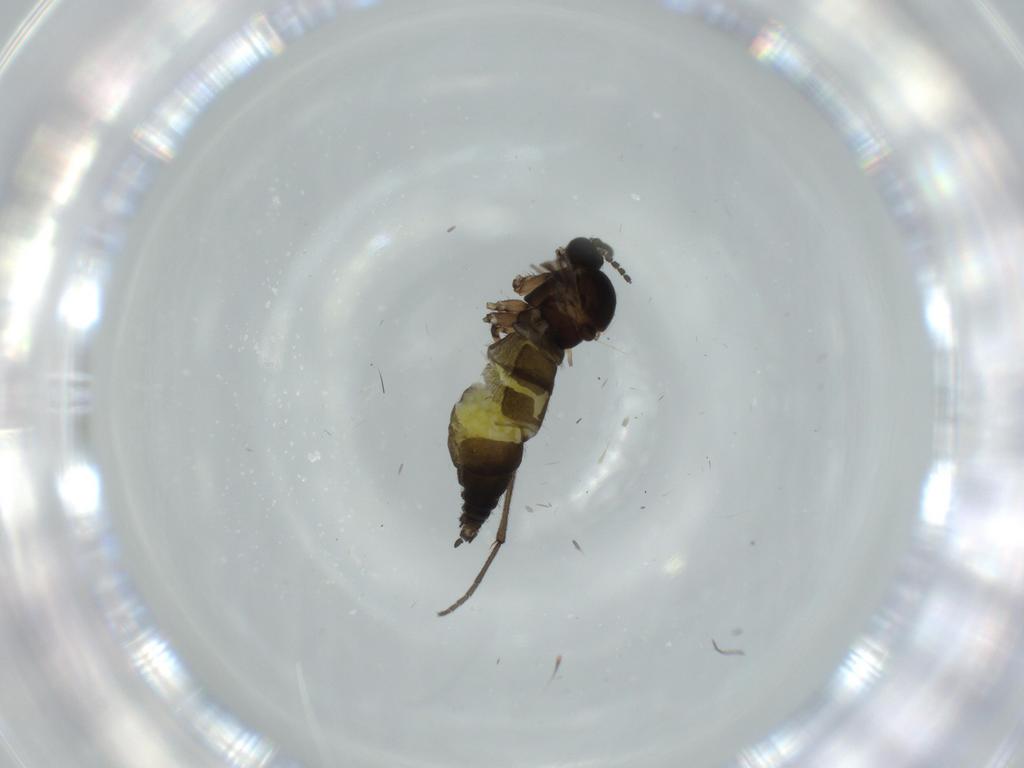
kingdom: Animalia
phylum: Arthropoda
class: Insecta
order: Diptera
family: Sciaridae
